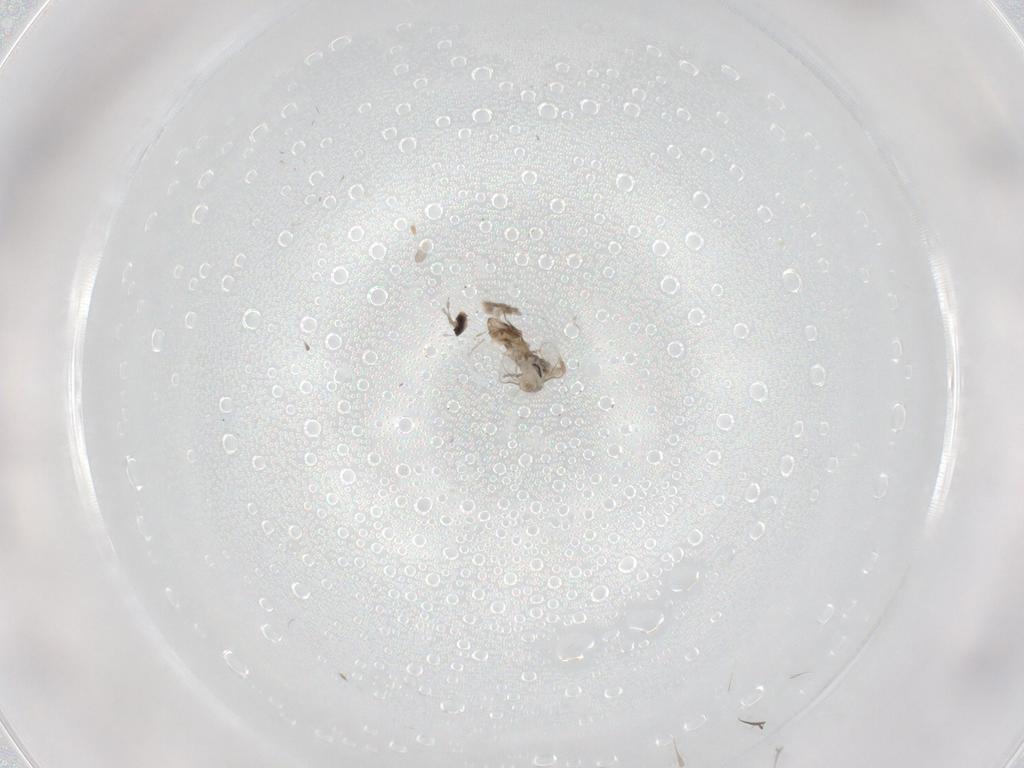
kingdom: Animalia
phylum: Arthropoda
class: Insecta
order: Diptera
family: Cecidomyiidae
